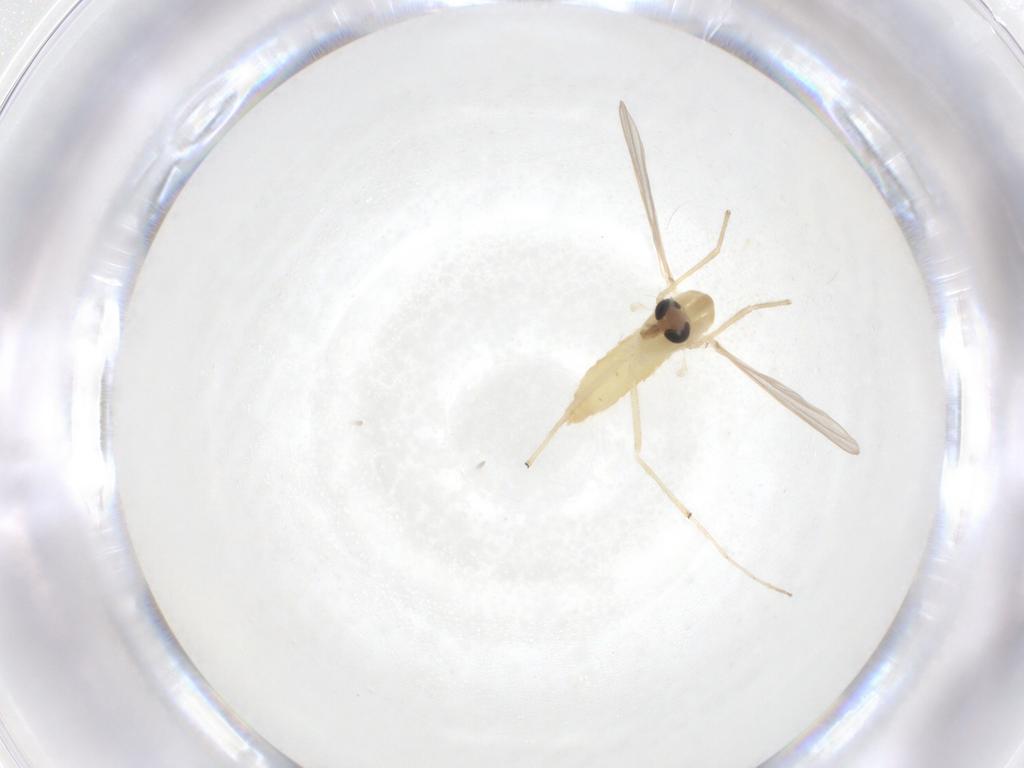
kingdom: Animalia
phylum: Arthropoda
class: Insecta
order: Diptera
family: Chironomidae
